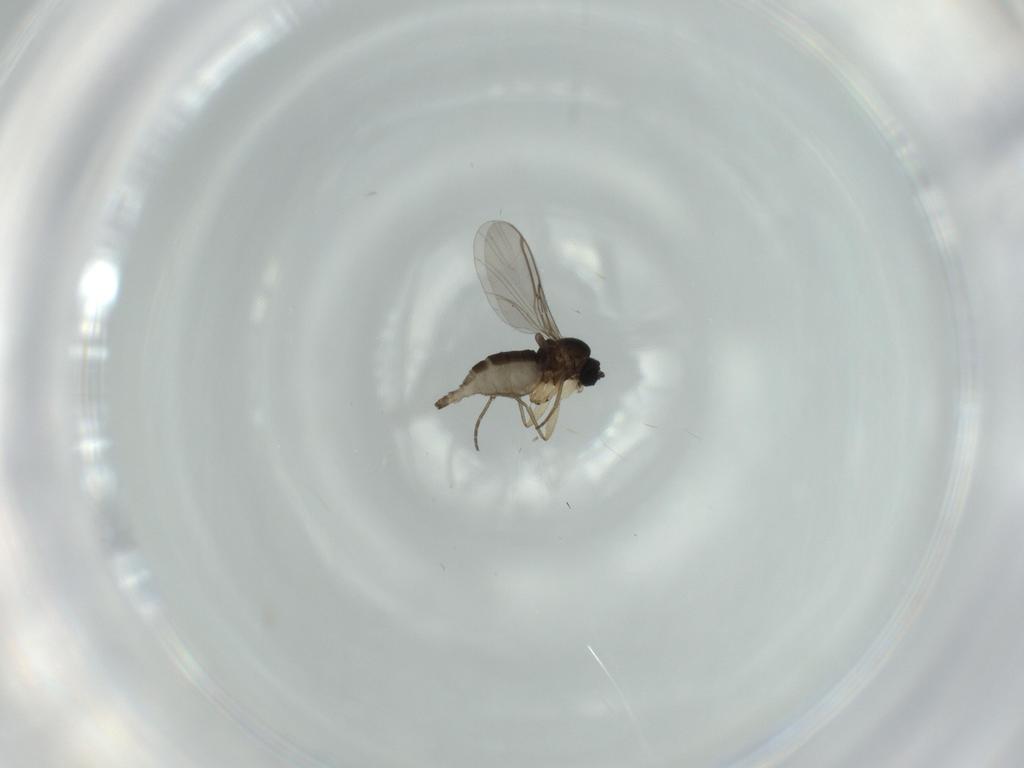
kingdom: Animalia
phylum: Arthropoda
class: Insecta
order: Diptera
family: Milichiidae
